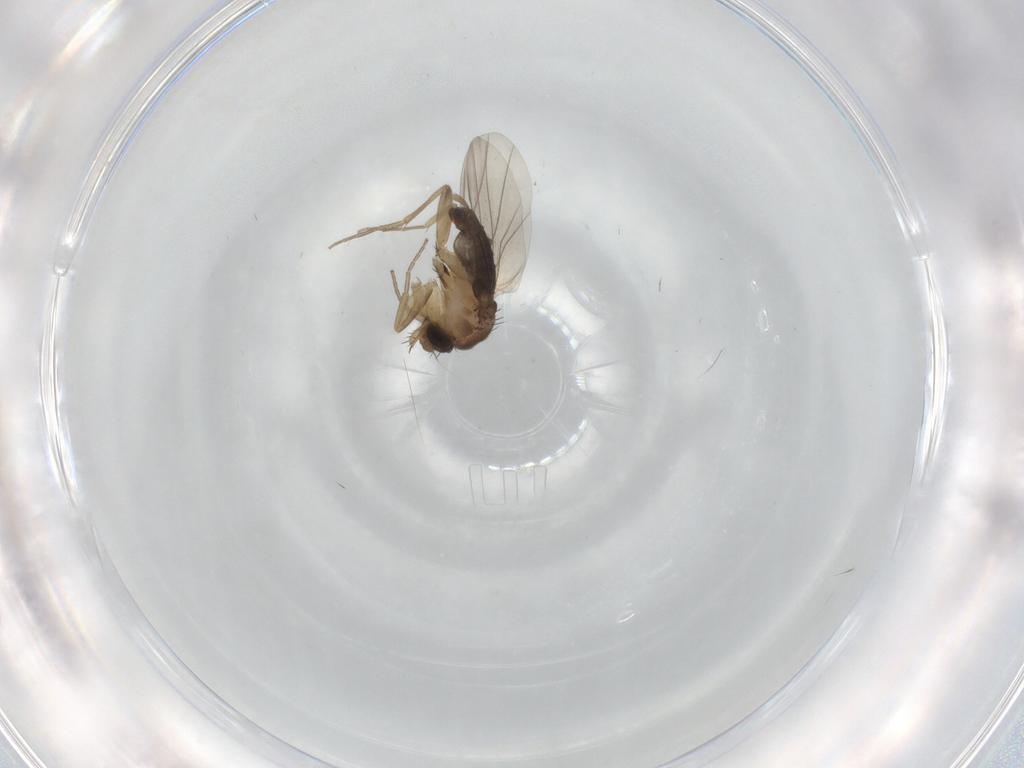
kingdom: Animalia
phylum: Arthropoda
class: Insecta
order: Diptera
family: Phoridae
